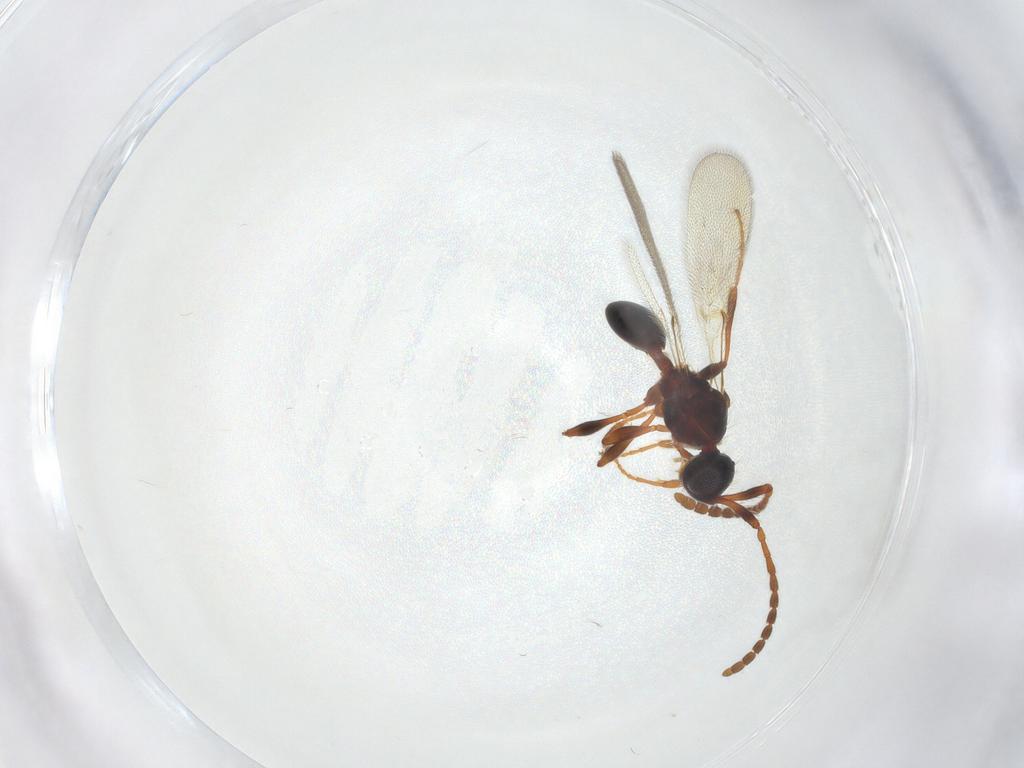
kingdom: Animalia
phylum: Arthropoda
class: Insecta
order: Hymenoptera
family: Diapriidae
